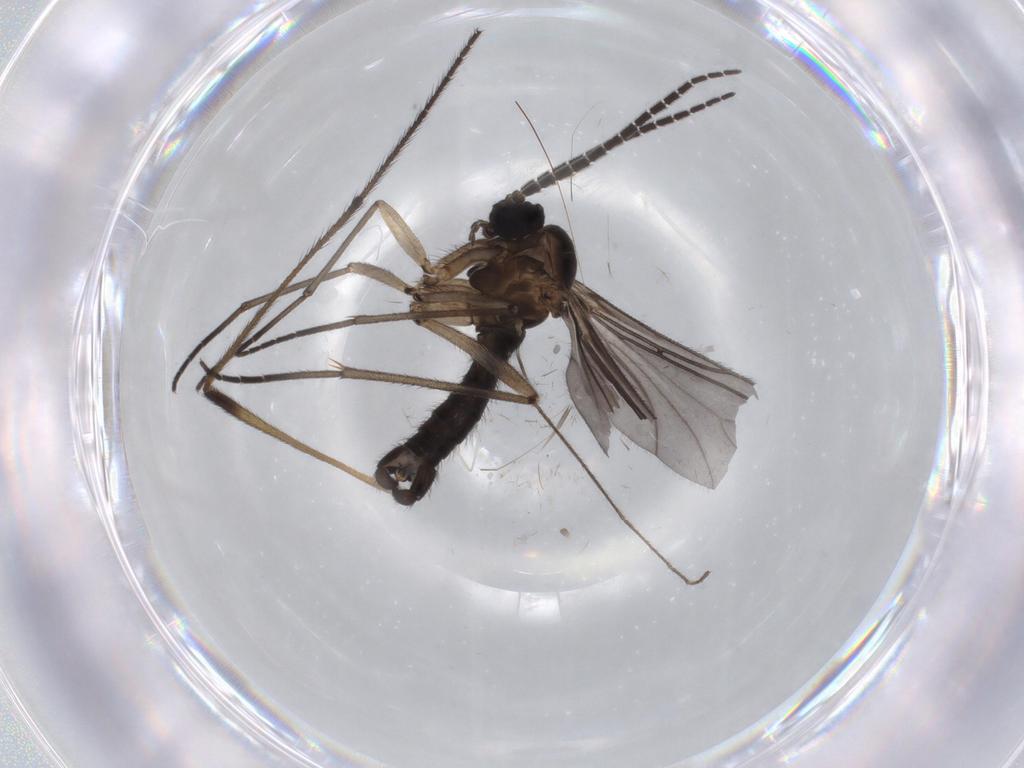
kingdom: Animalia
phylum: Arthropoda
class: Insecta
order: Diptera
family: Sciaridae
